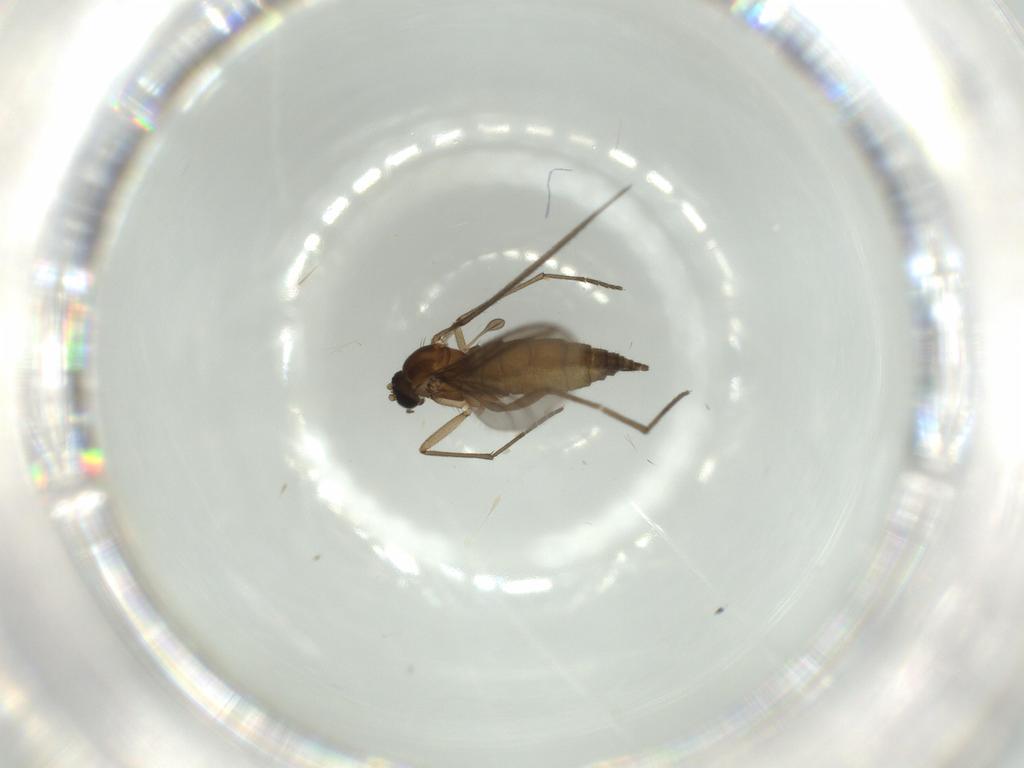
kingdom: Animalia
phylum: Arthropoda
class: Insecta
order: Diptera
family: Sciaridae
